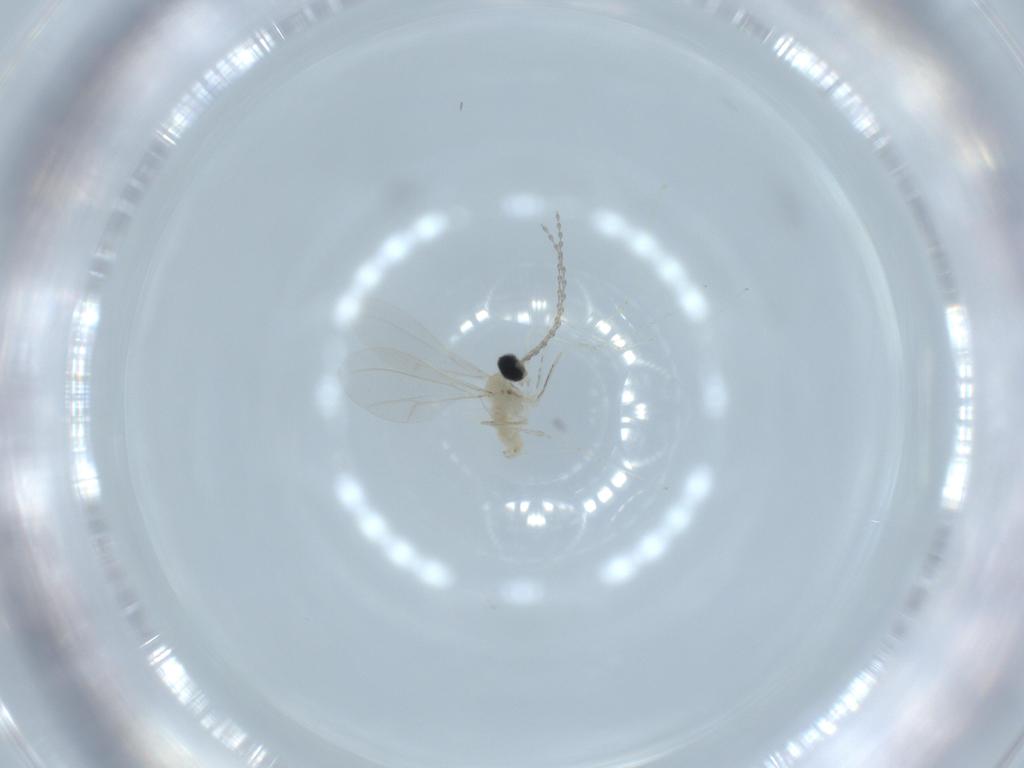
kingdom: Animalia
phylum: Arthropoda
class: Insecta
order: Diptera
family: Cecidomyiidae
